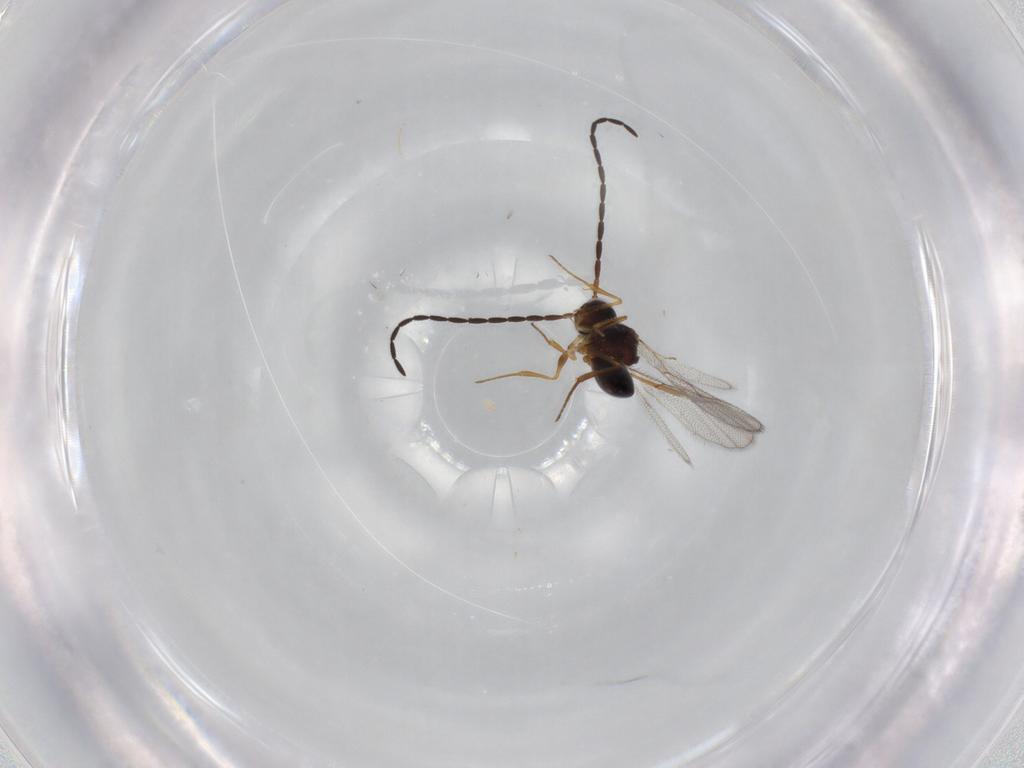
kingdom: Animalia
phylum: Arthropoda
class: Insecta
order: Hymenoptera
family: Figitidae
